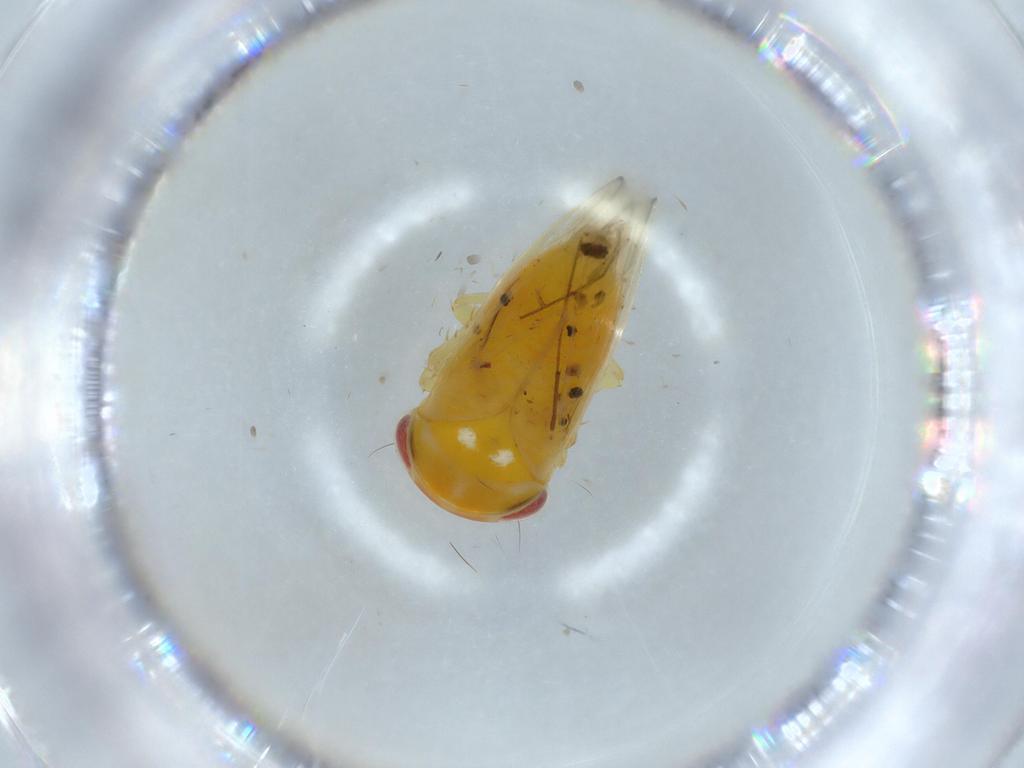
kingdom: Animalia
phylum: Arthropoda
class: Insecta
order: Hemiptera
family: Cicadellidae
